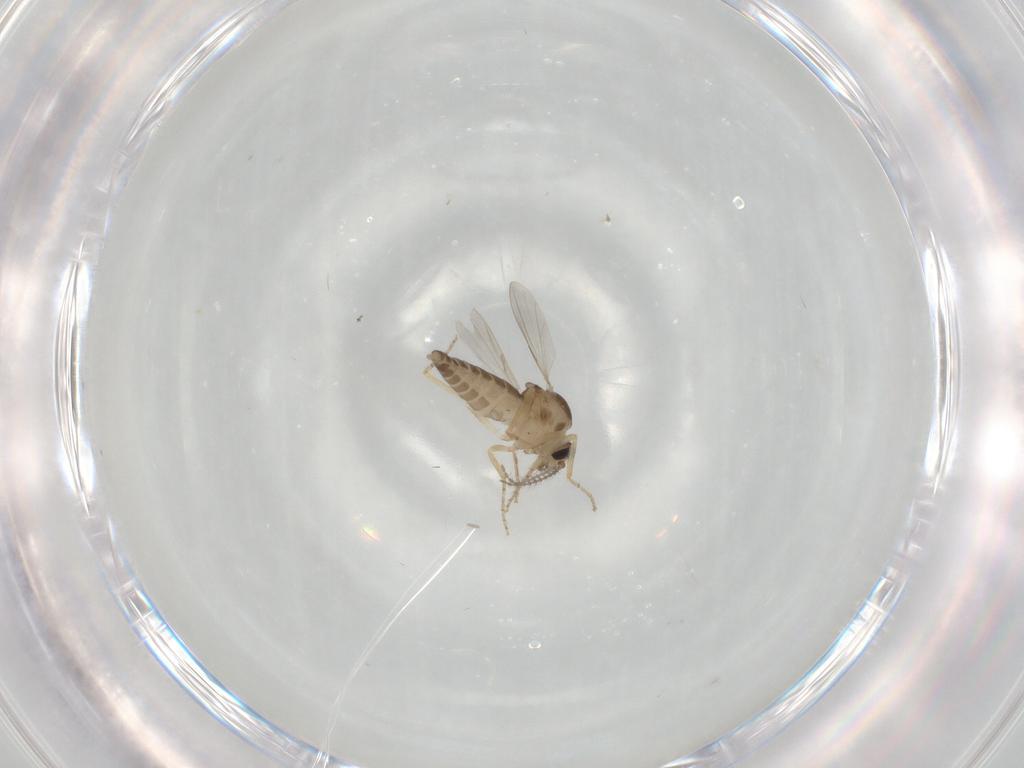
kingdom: Animalia
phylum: Arthropoda
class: Insecta
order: Diptera
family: Ceratopogonidae
